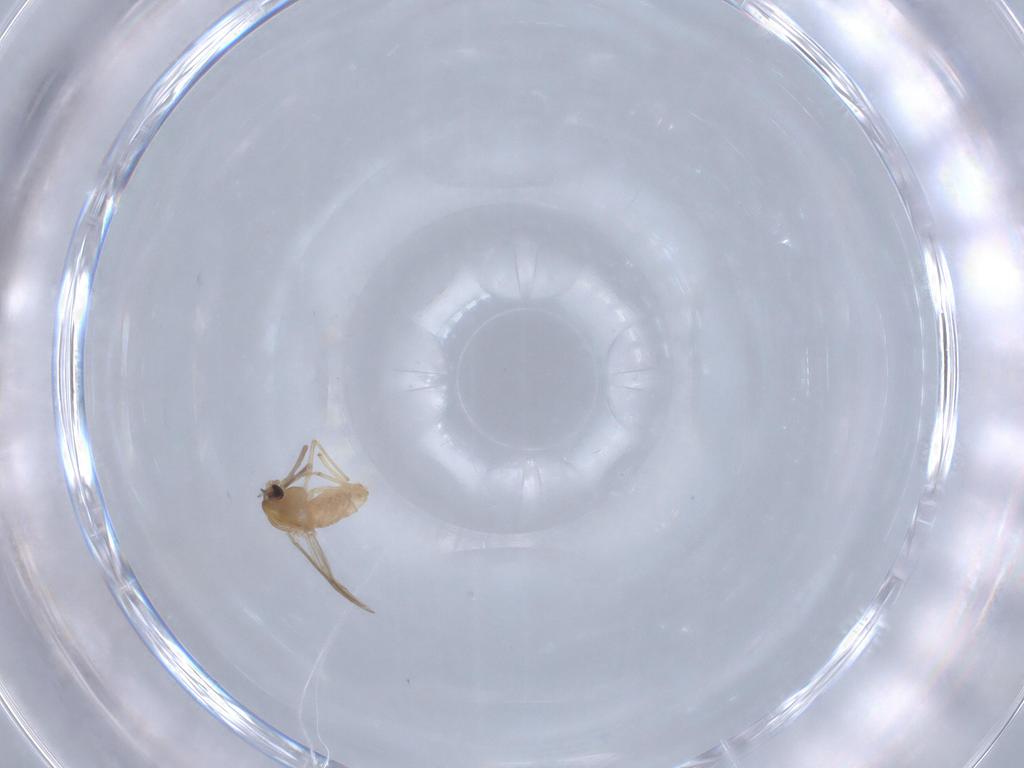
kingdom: Animalia
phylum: Arthropoda
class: Insecta
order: Diptera
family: Chironomidae
